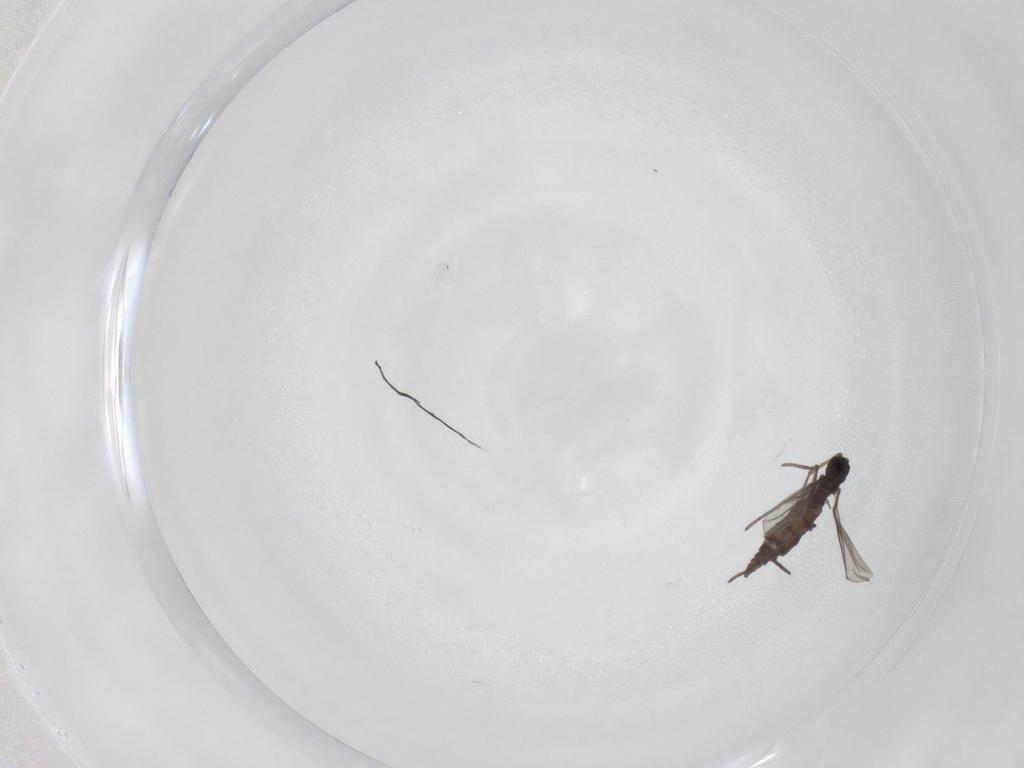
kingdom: Animalia
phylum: Arthropoda
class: Insecta
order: Diptera
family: Cecidomyiidae
